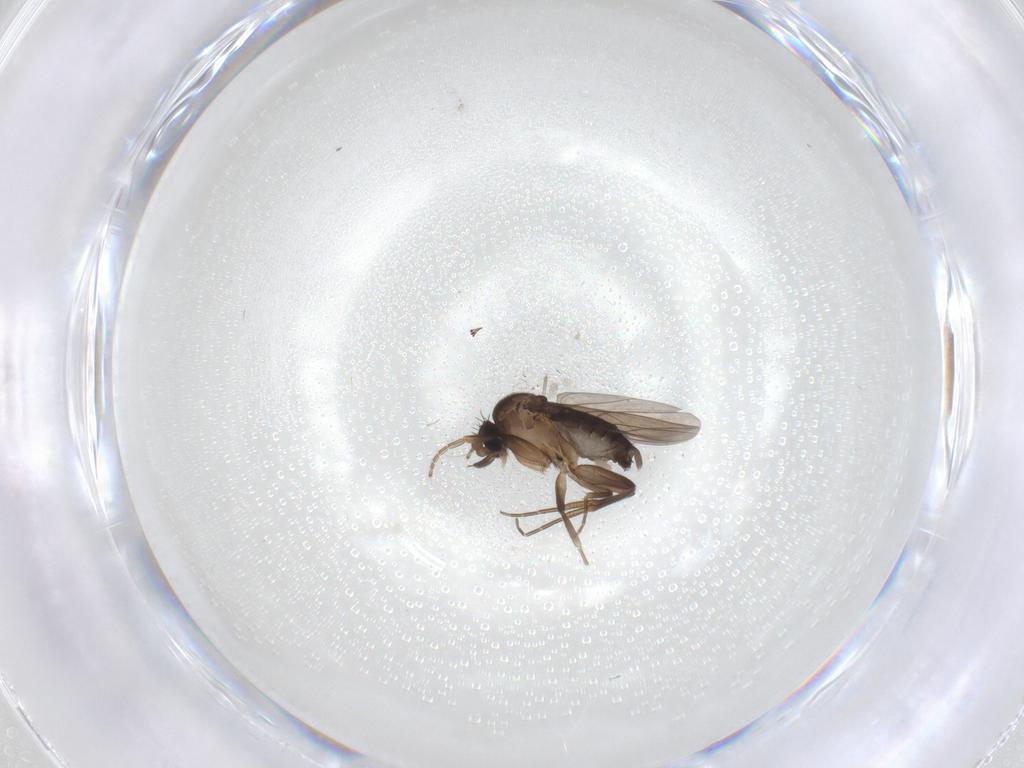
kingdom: Animalia
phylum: Arthropoda
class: Insecta
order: Diptera
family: Phoridae
